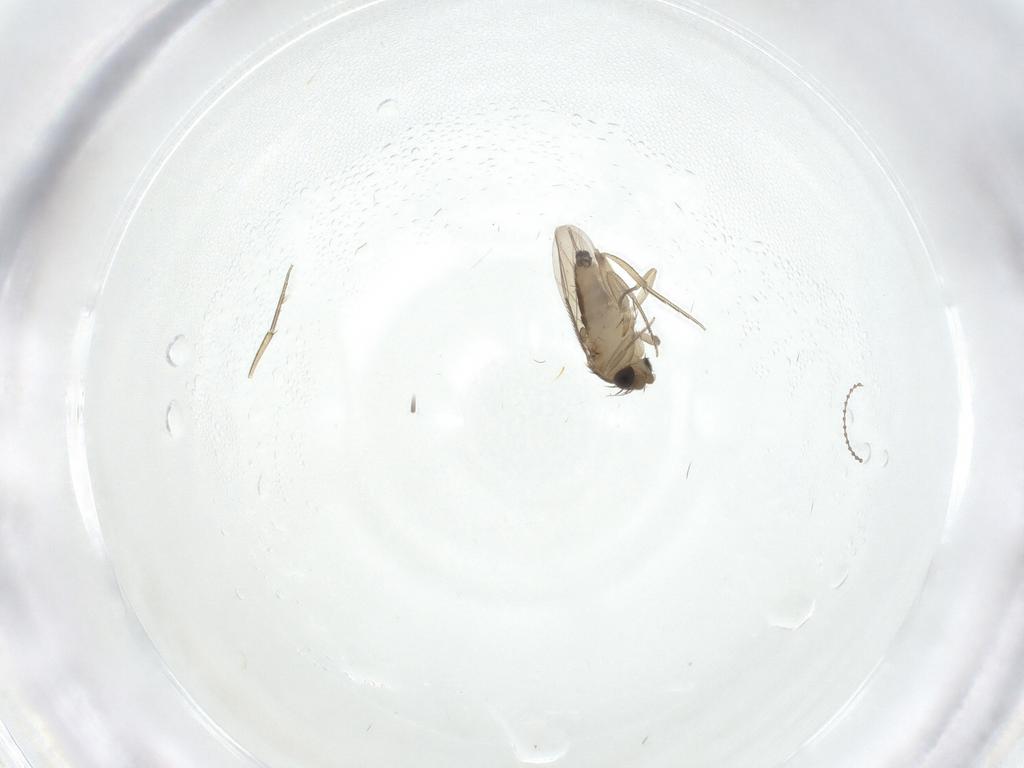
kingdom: Animalia
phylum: Arthropoda
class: Insecta
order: Diptera
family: Phoridae
